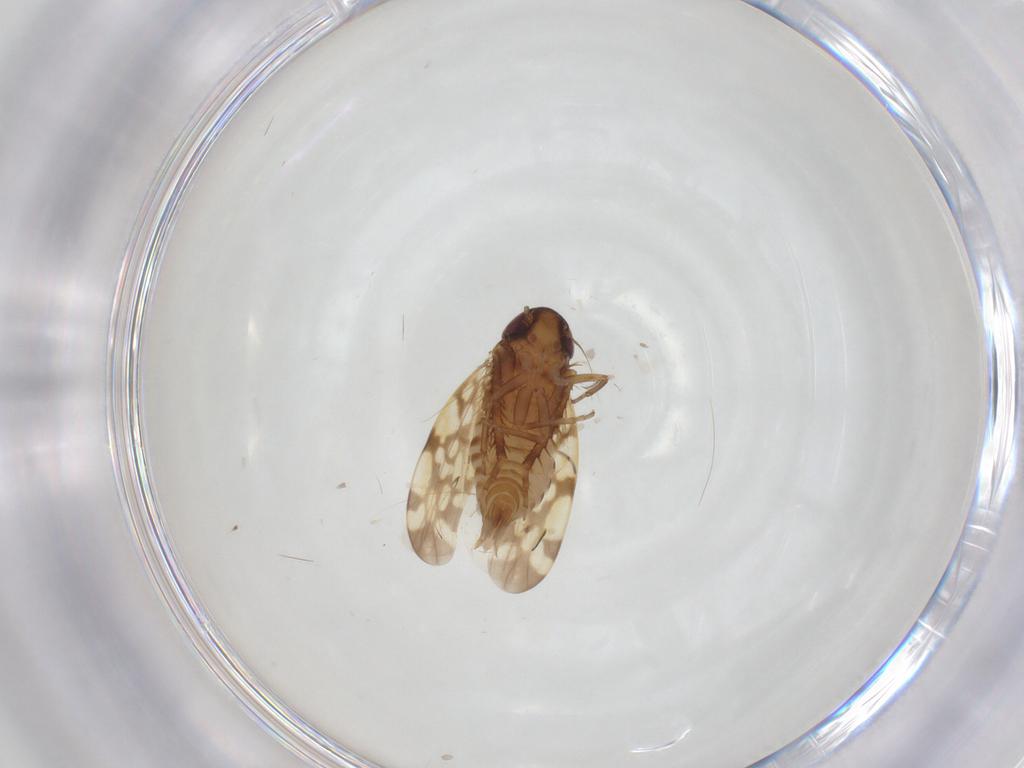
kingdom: Animalia
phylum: Arthropoda
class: Insecta
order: Hemiptera
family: Cicadellidae
